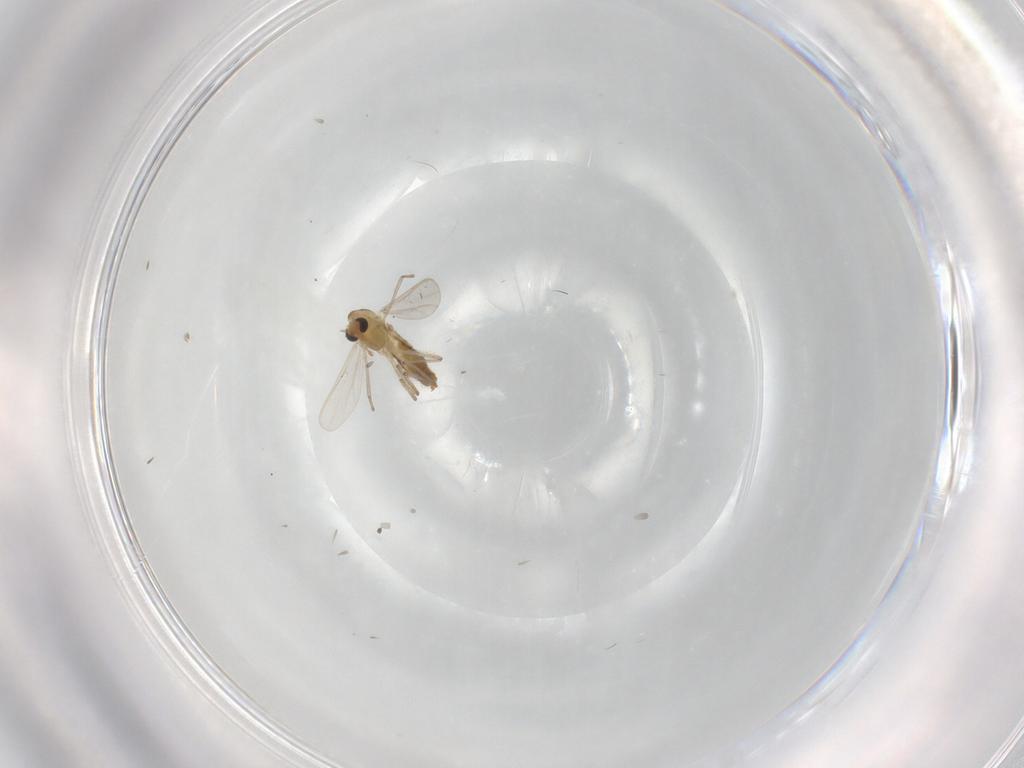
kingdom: Animalia
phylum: Arthropoda
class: Insecta
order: Diptera
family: Chironomidae
